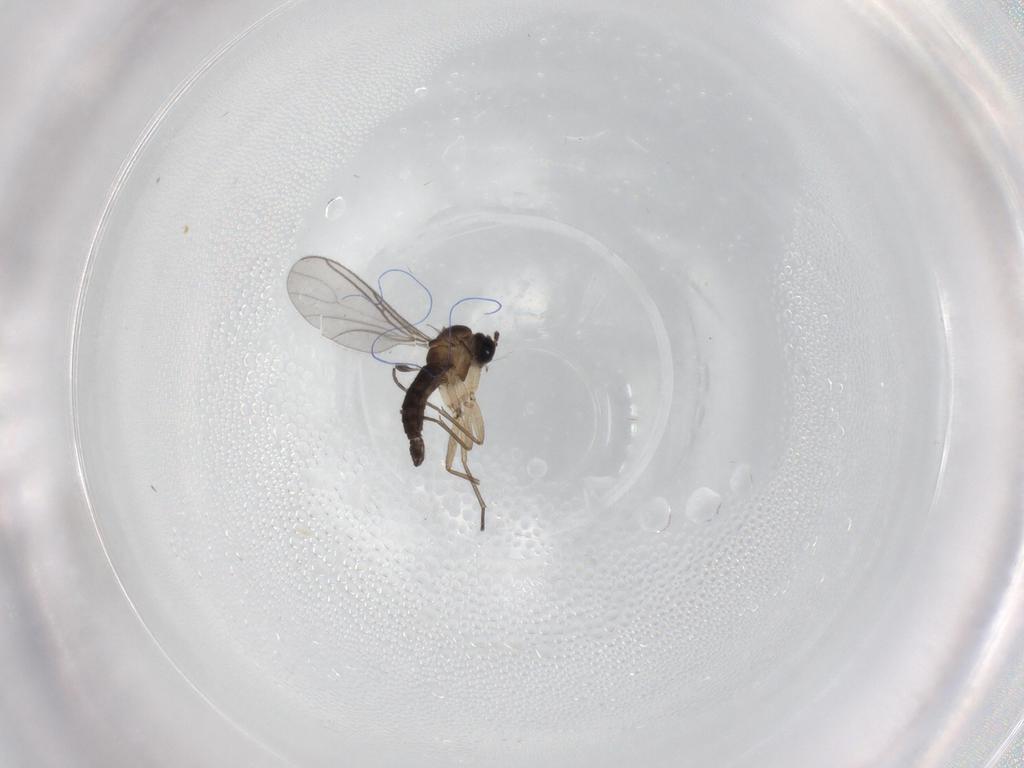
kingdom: Animalia
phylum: Arthropoda
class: Insecta
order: Diptera
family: Sciaridae
